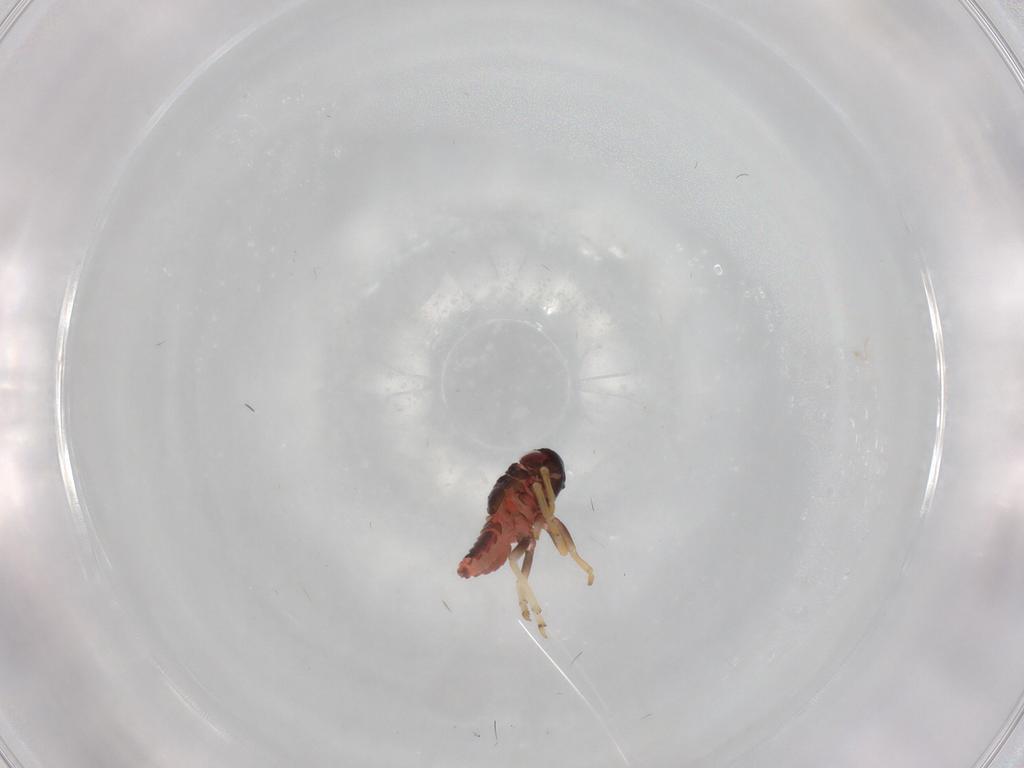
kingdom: Animalia
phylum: Arthropoda
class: Insecta
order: Hemiptera
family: Fulgoroidea_incertae_sedis
